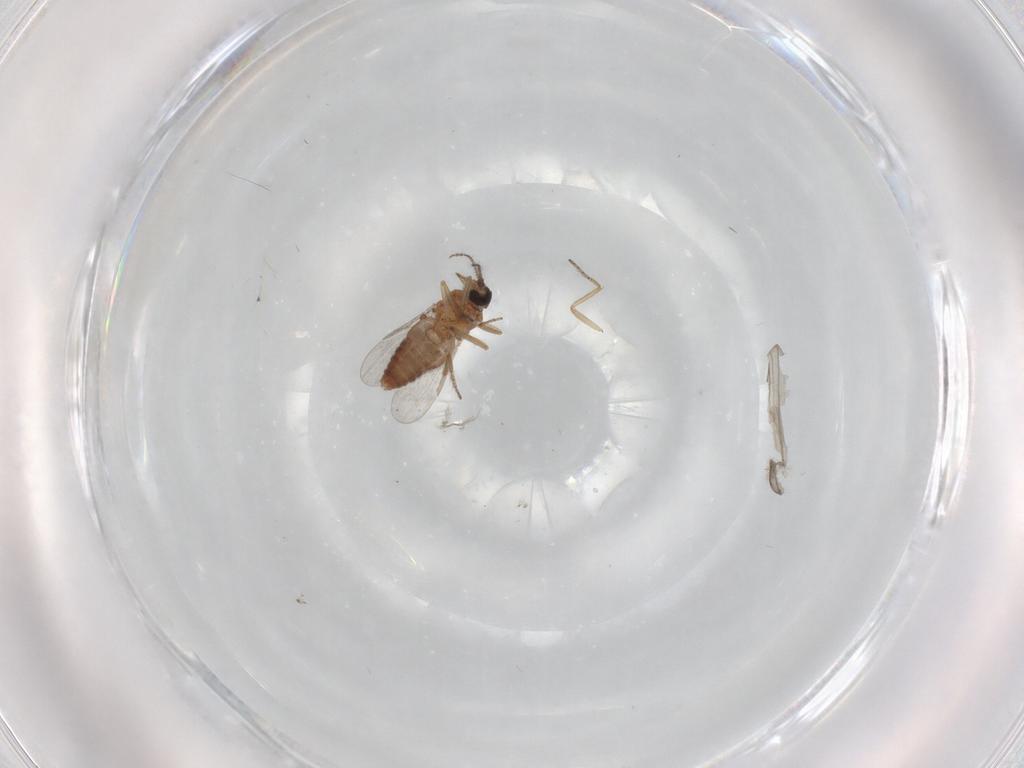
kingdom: Animalia
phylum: Arthropoda
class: Insecta
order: Diptera
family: Ceratopogonidae
